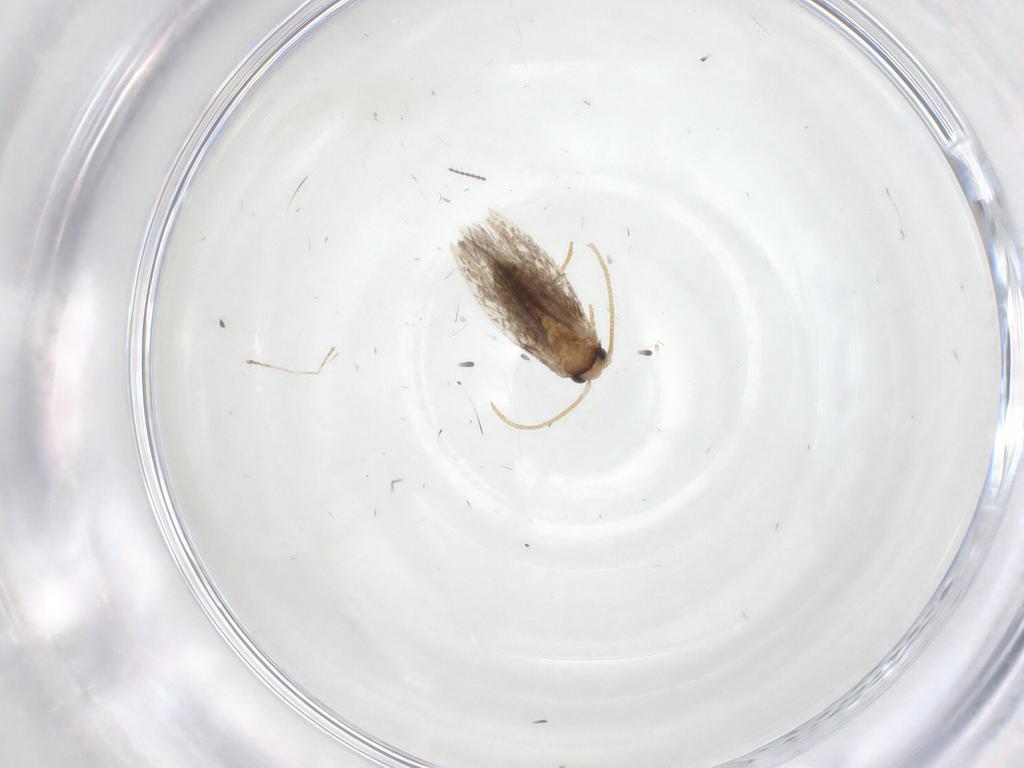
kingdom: Animalia
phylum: Arthropoda
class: Insecta
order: Lepidoptera
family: Nepticulidae
